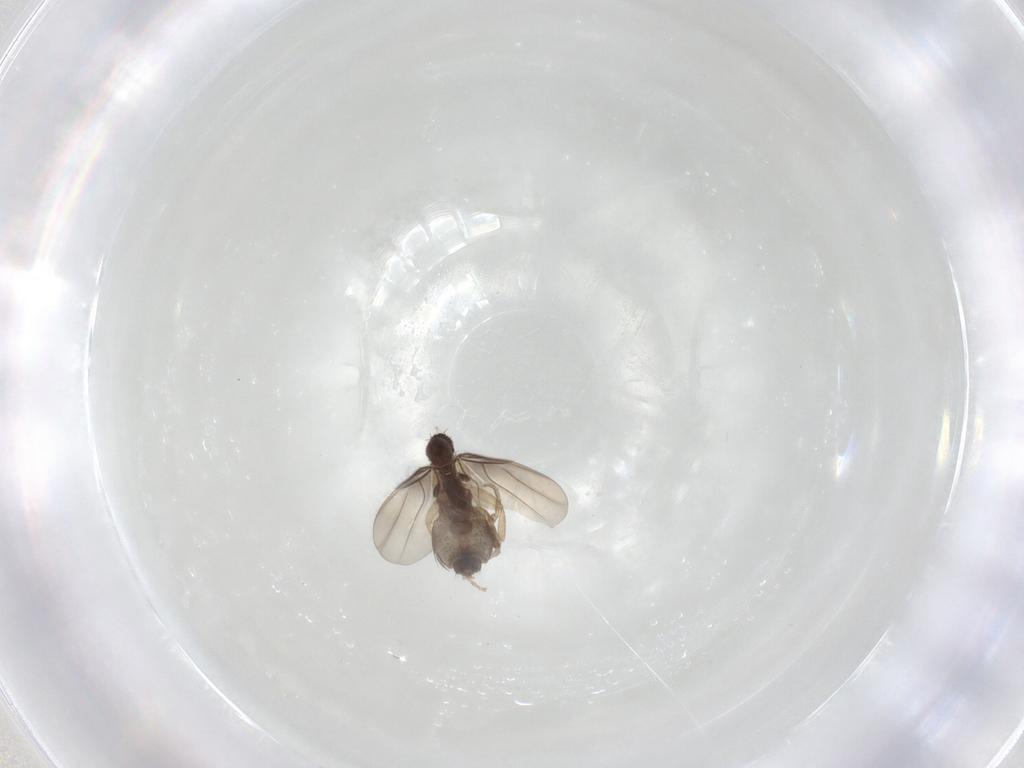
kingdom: Animalia
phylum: Arthropoda
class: Insecta
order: Diptera
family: Phoridae
